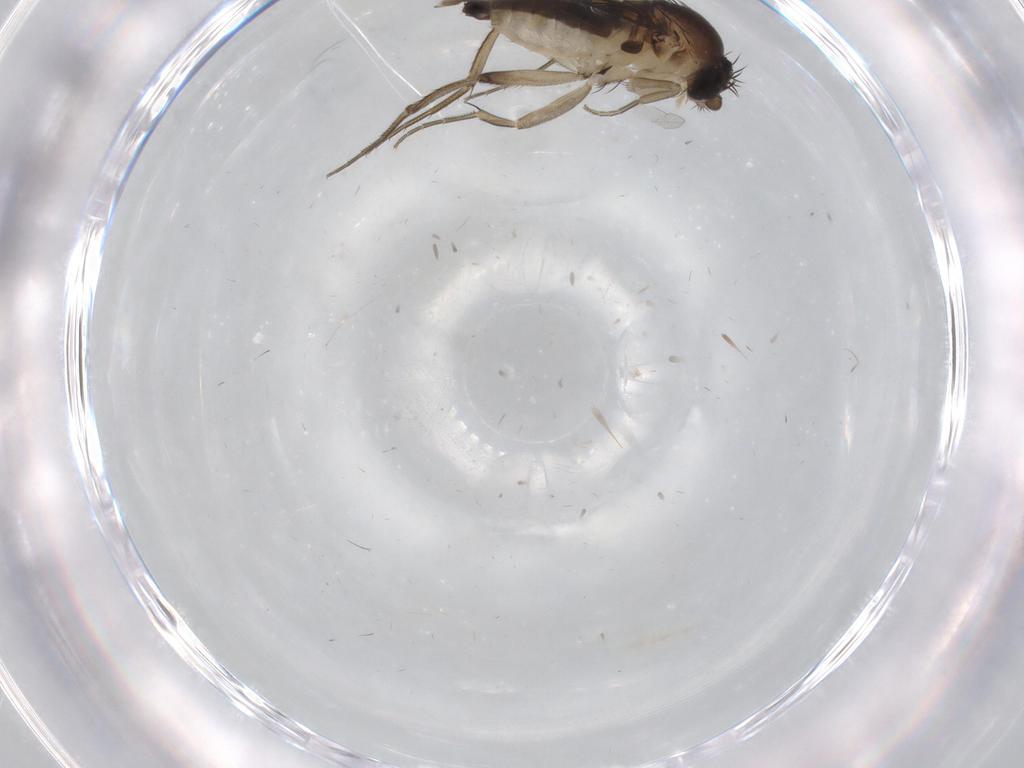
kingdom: Animalia
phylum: Arthropoda
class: Insecta
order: Diptera
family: Phoridae
